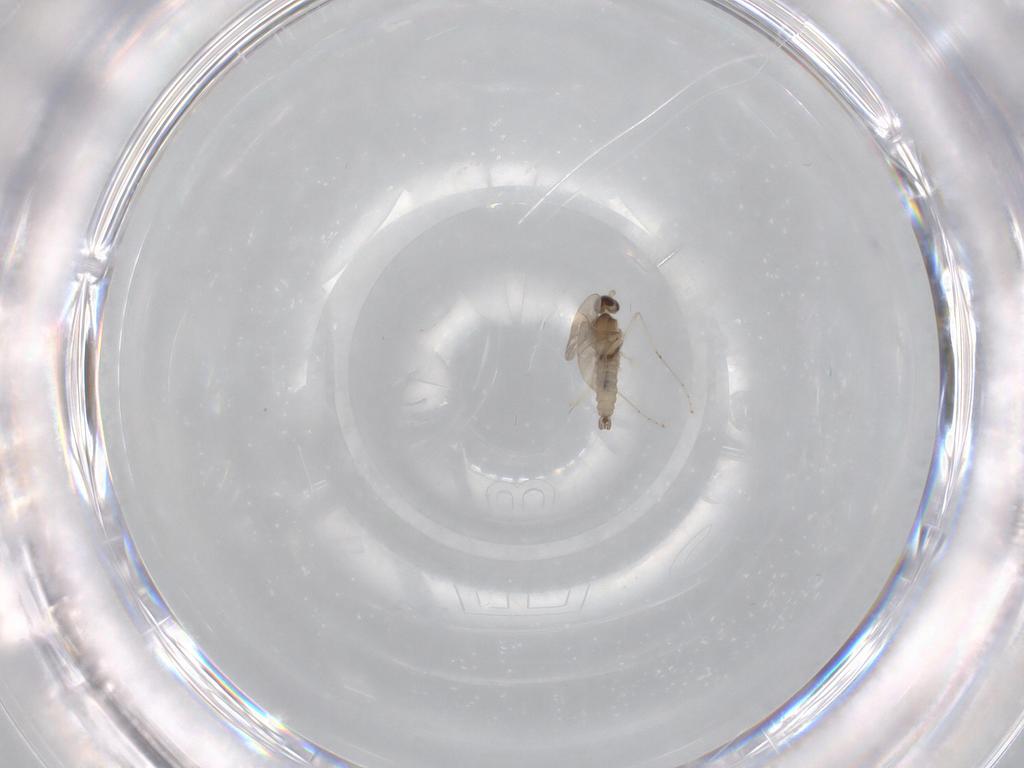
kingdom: Animalia
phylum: Arthropoda
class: Insecta
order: Diptera
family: Cecidomyiidae
